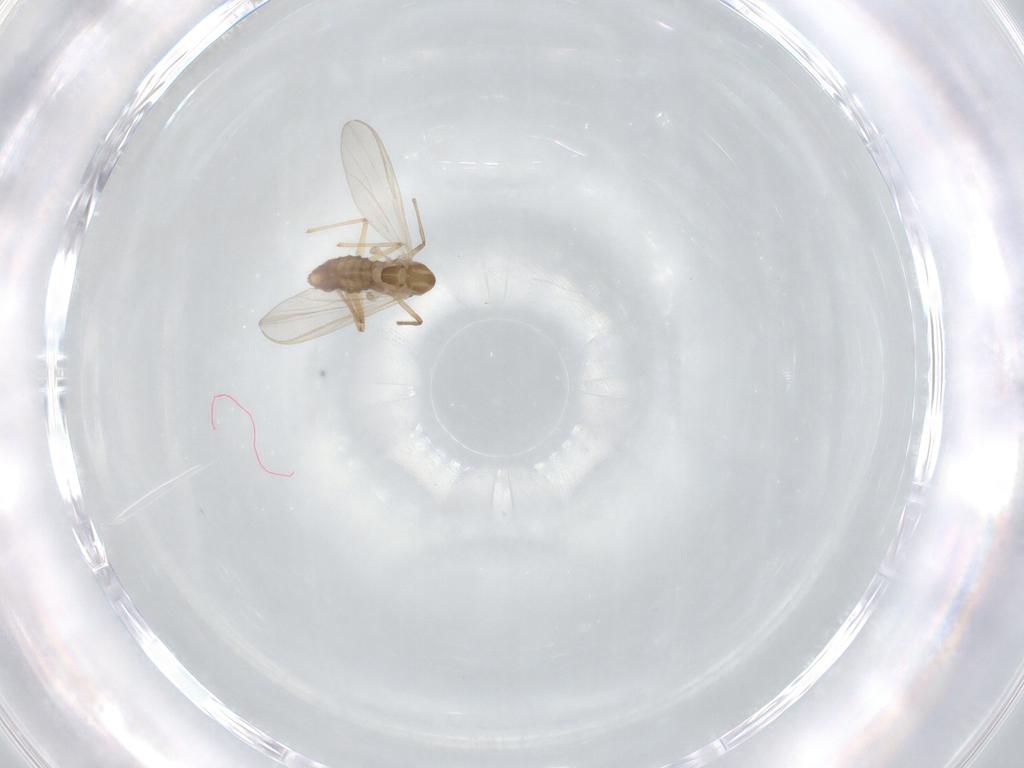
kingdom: Animalia
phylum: Arthropoda
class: Insecta
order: Diptera
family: Chironomidae
